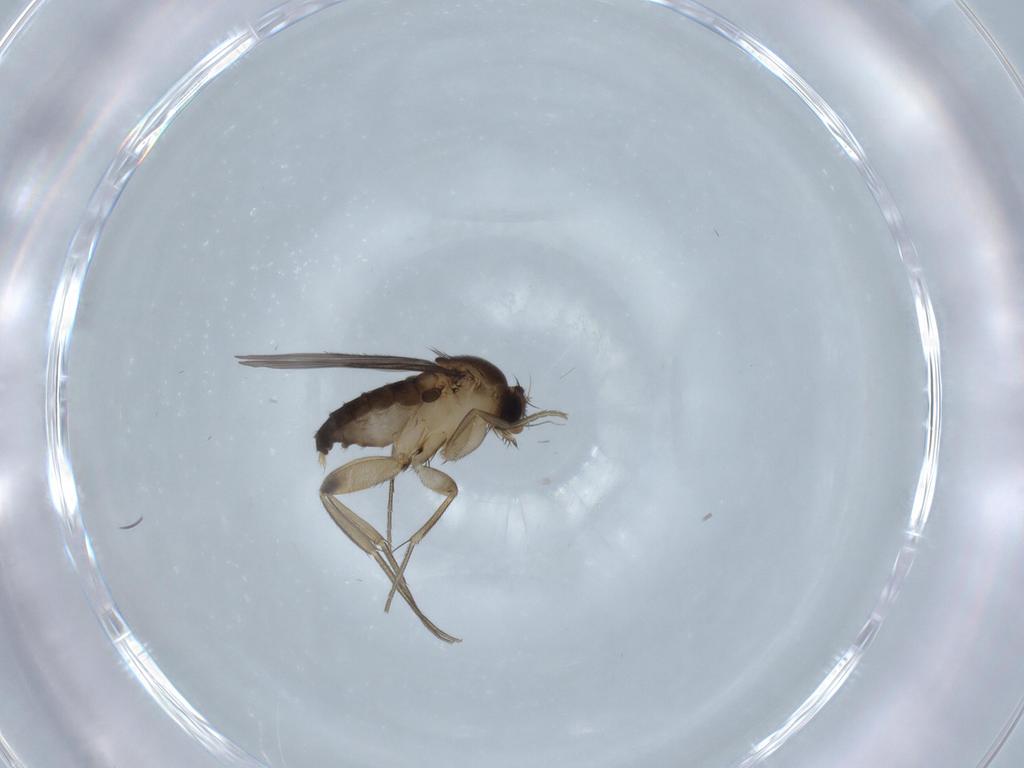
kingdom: Animalia
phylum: Arthropoda
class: Insecta
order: Diptera
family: Phoridae
